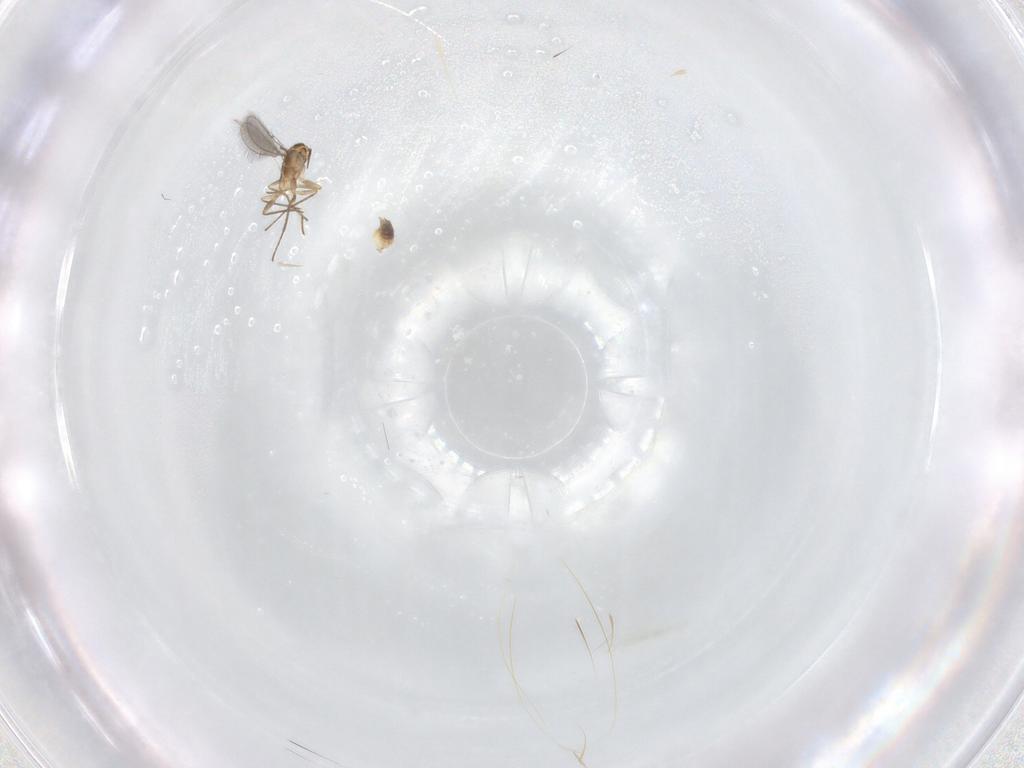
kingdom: Animalia
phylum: Arthropoda
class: Insecta
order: Hymenoptera
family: Mymaridae
